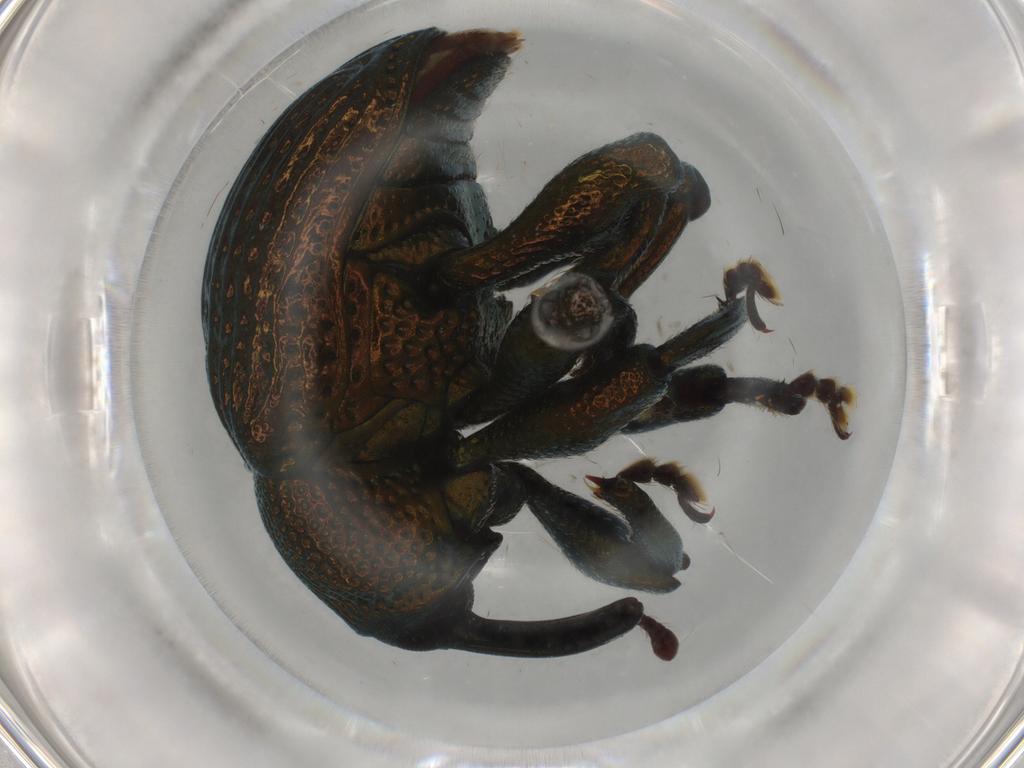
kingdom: Animalia
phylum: Arthropoda
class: Insecta
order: Coleoptera
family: Curculionidae
